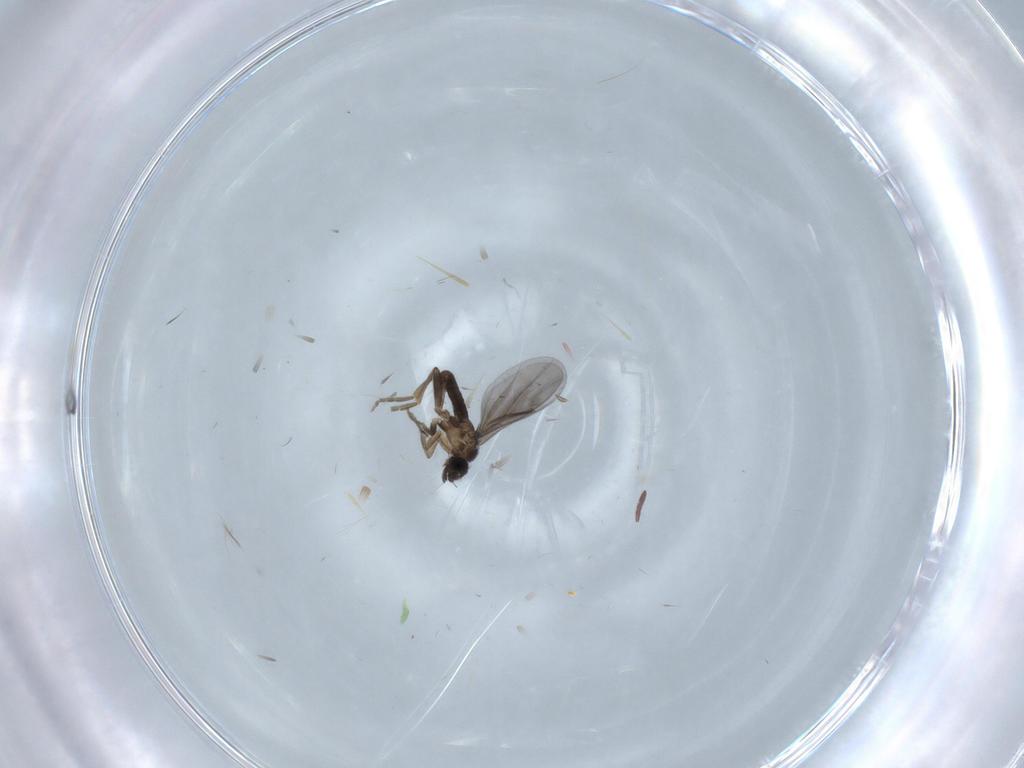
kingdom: Animalia
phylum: Arthropoda
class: Insecta
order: Diptera
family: Cecidomyiidae
